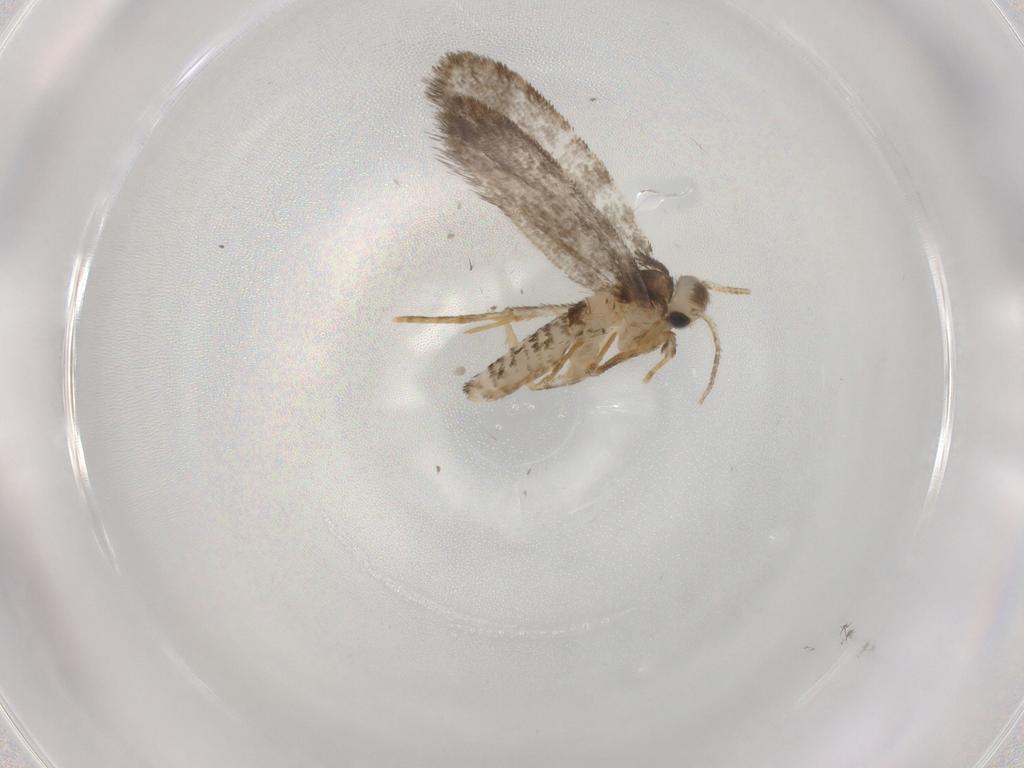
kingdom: Animalia
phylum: Arthropoda
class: Insecta
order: Lepidoptera
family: Psychidae
